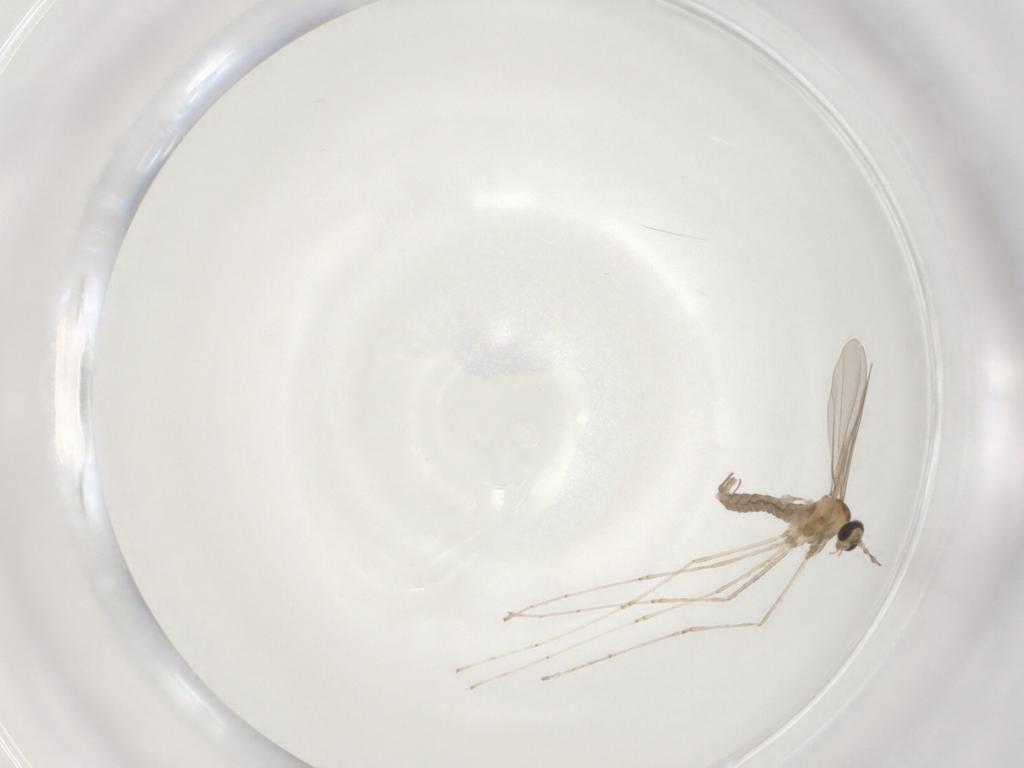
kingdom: Animalia
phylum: Arthropoda
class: Insecta
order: Diptera
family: Cecidomyiidae
